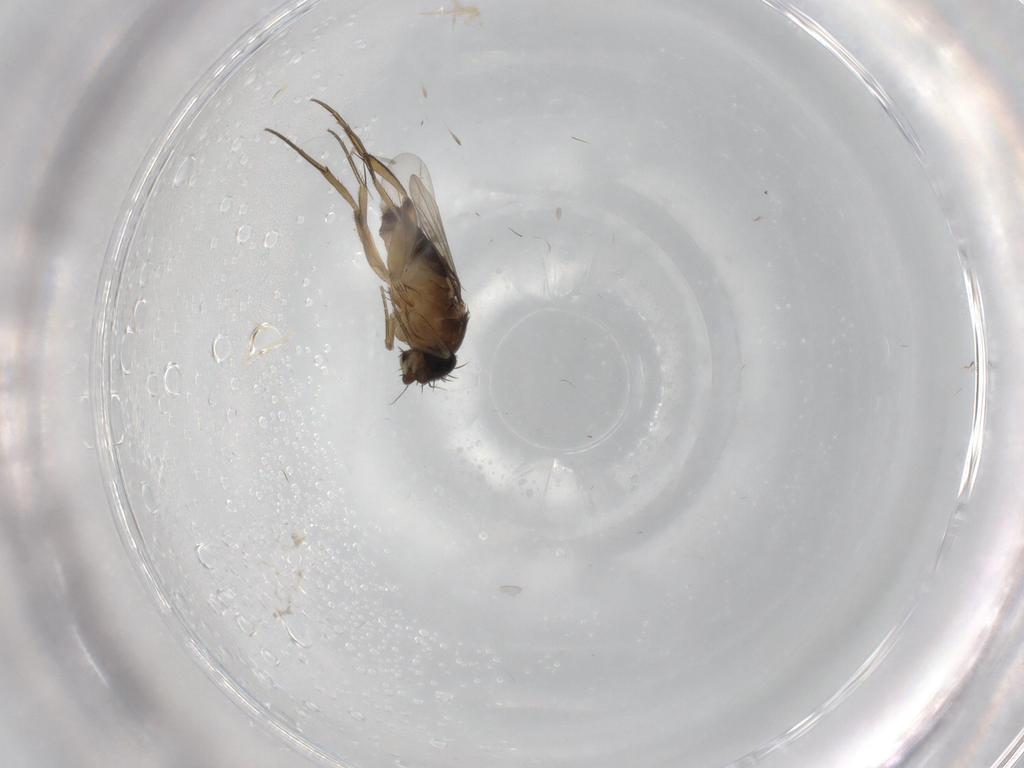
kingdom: Animalia
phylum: Arthropoda
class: Insecta
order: Diptera
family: Phoridae
